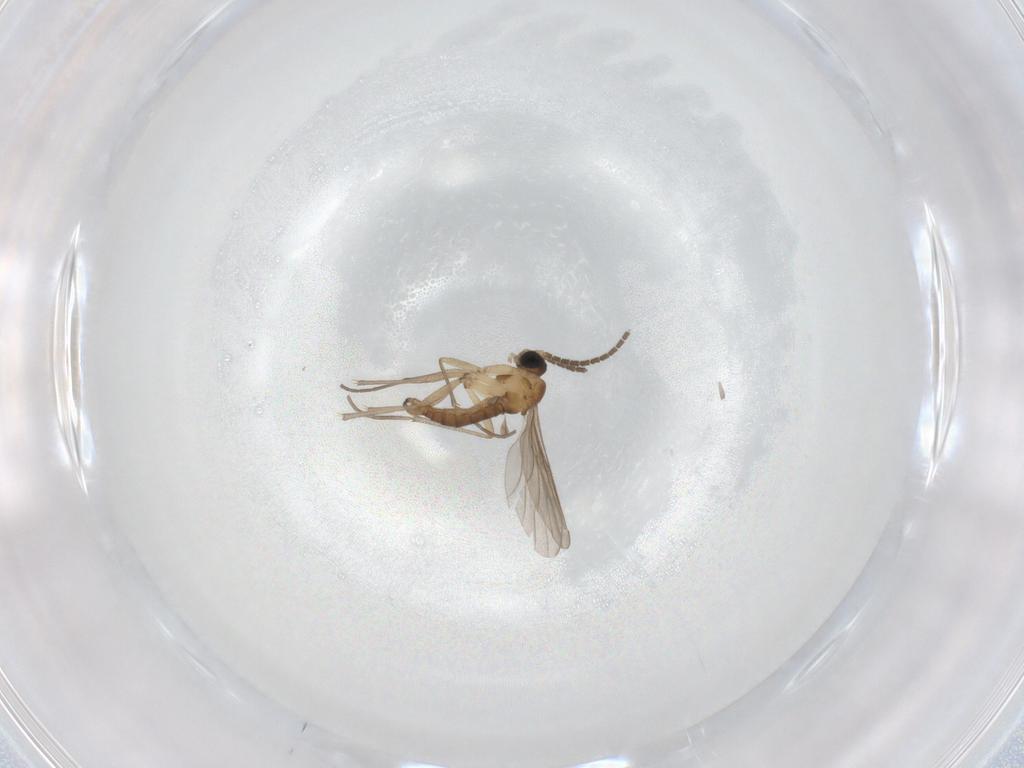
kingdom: Animalia
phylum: Arthropoda
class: Insecta
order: Diptera
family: Sciaridae
